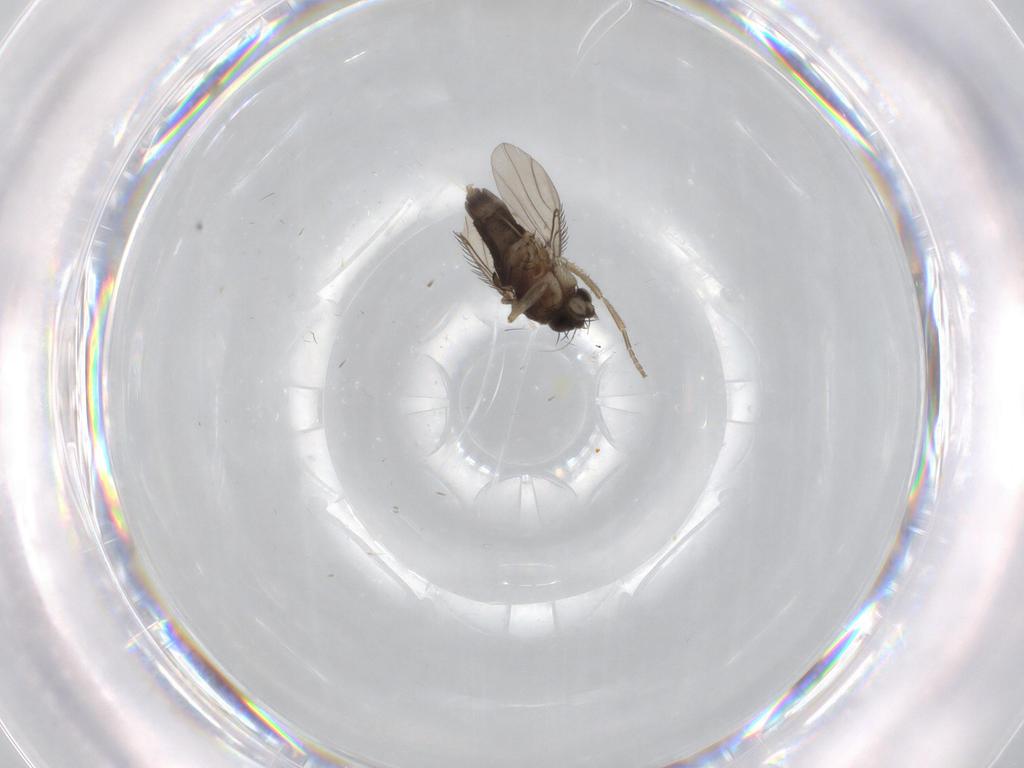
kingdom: Animalia
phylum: Arthropoda
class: Insecta
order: Diptera
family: Phoridae
